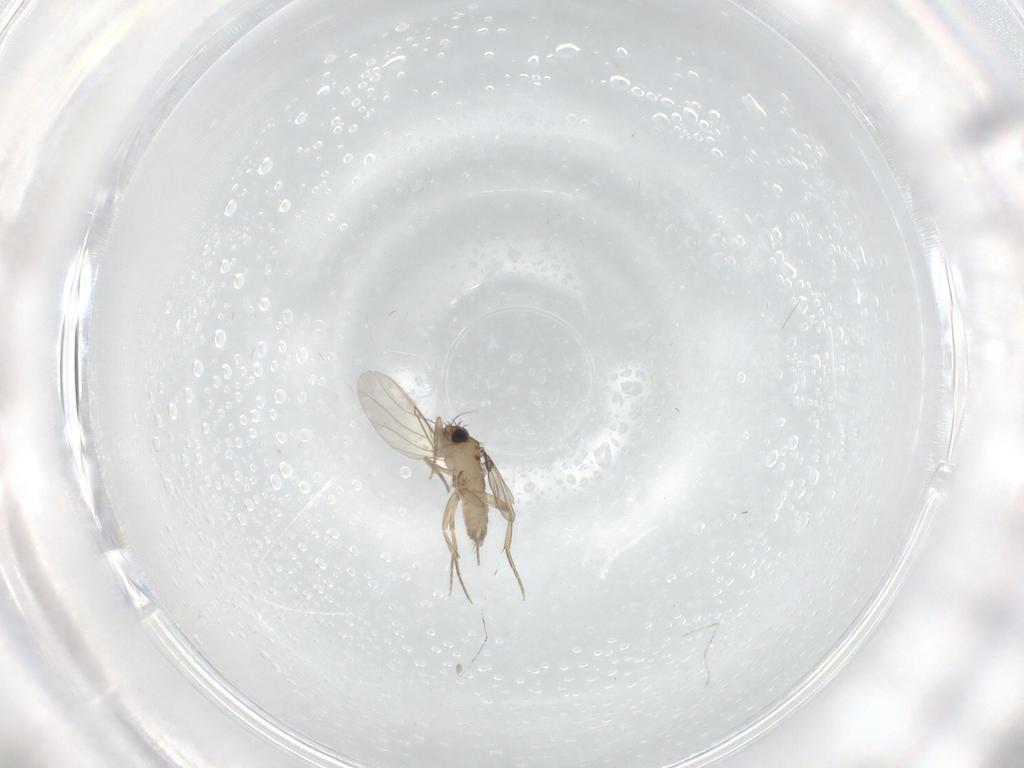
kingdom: Animalia
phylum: Arthropoda
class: Insecta
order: Diptera
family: Phoridae
